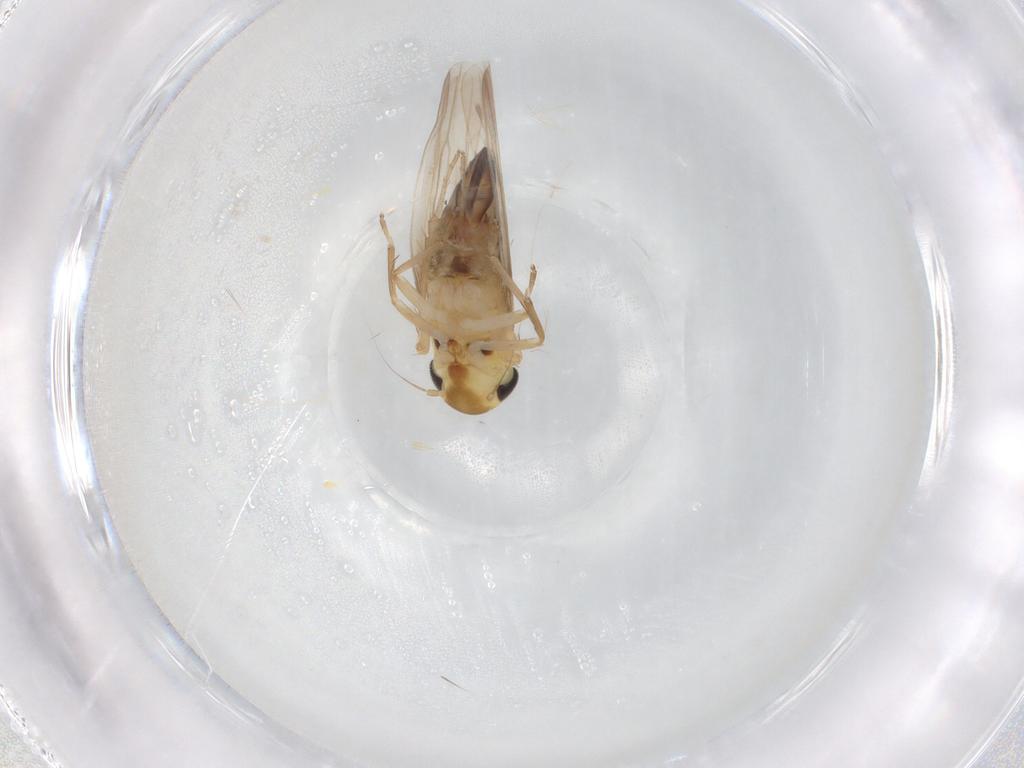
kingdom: Animalia
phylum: Arthropoda
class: Insecta
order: Hemiptera
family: Cicadellidae
